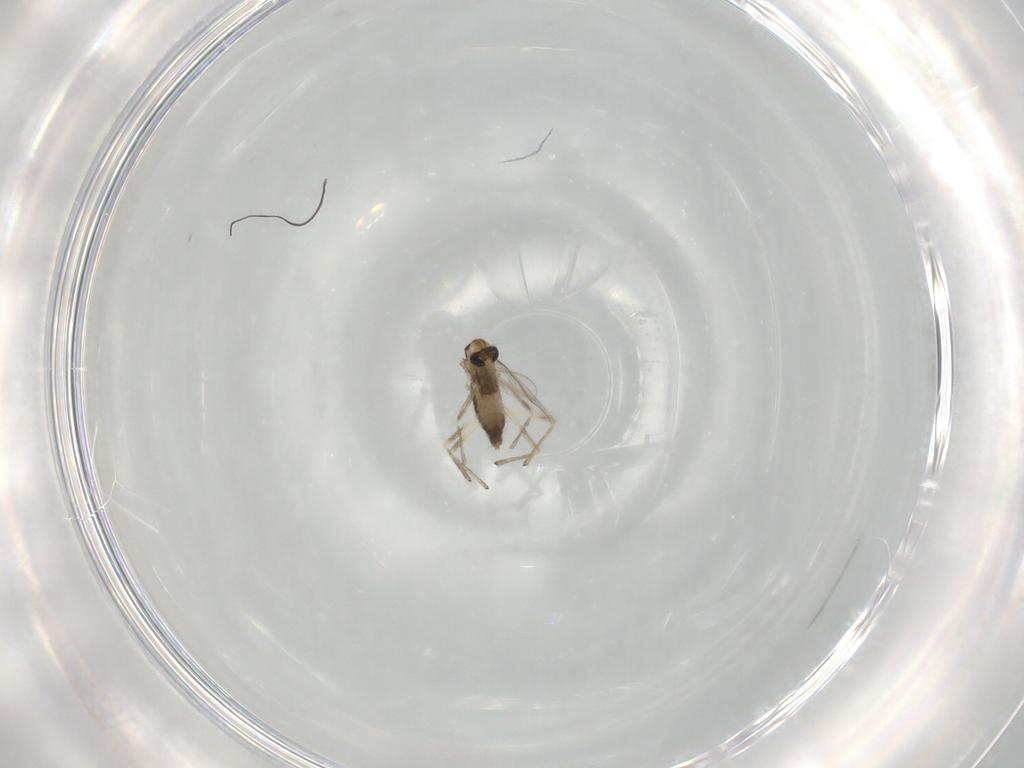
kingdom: Animalia
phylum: Arthropoda
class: Insecta
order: Diptera
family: Chironomidae
